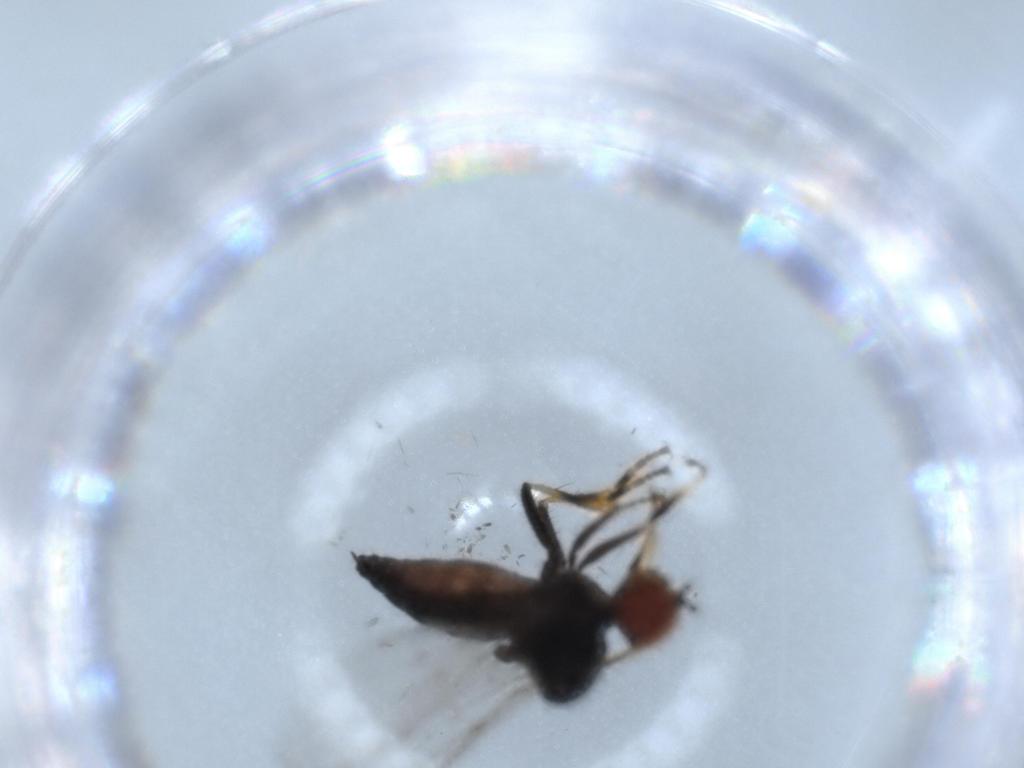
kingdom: Animalia
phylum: Arthropoda
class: Insecta
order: Diptera
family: Hybotidae
